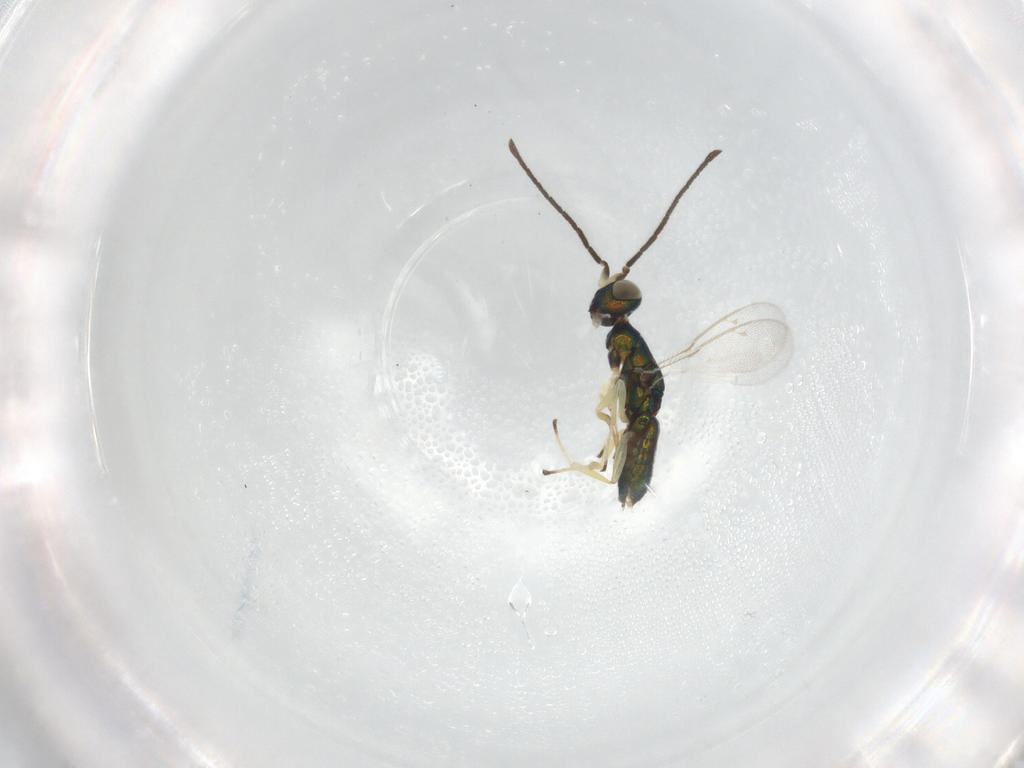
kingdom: Animalia
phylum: Arthropoda
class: Insecta
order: Hymenoptera
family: Pteromalidae
